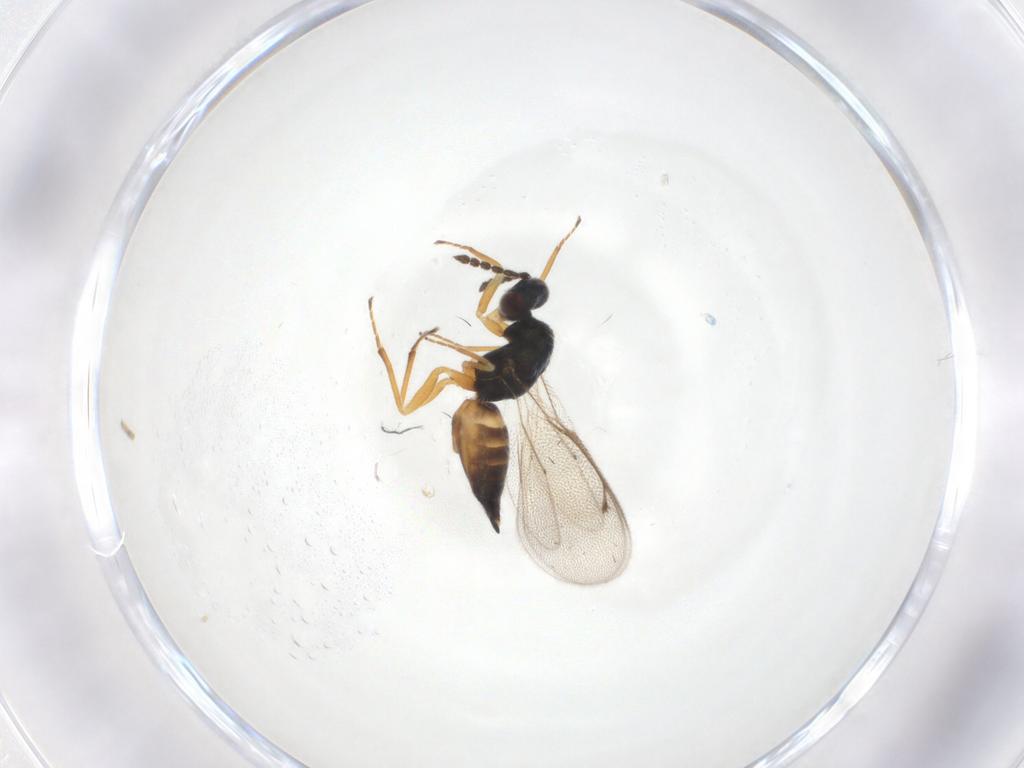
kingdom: Animalia
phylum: Arthropoda
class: Insecta
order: Hymenoptera
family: Eulophidae
